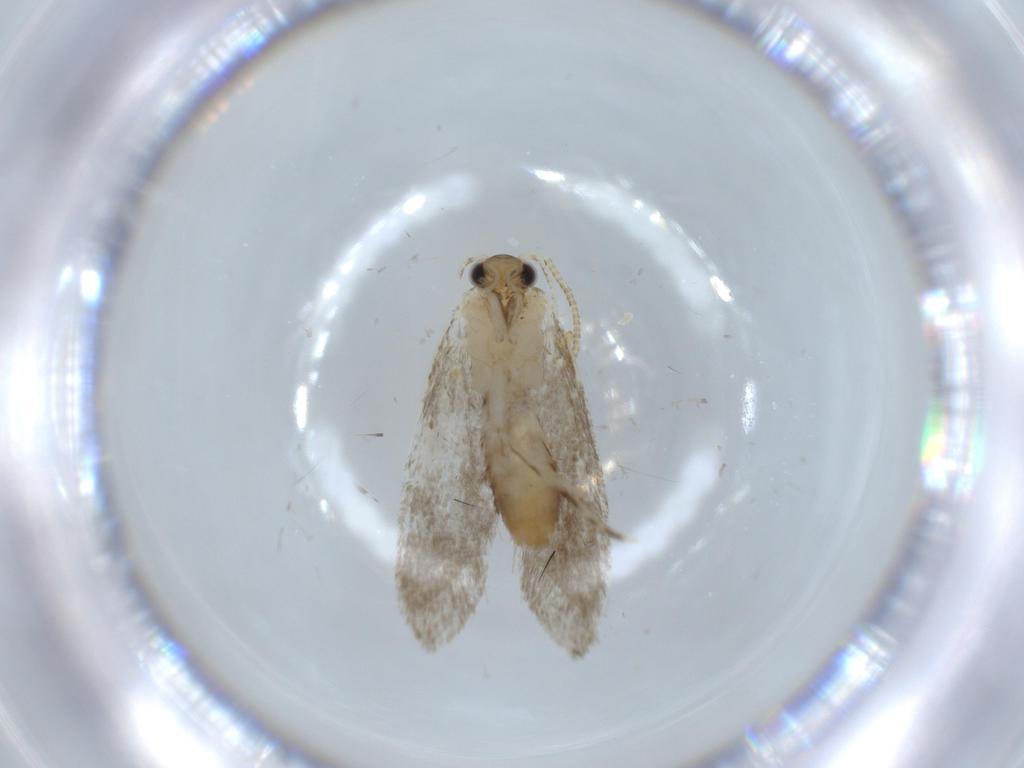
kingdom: Animalia
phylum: Arthropoda
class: Insecta
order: Lepidoptera
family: Tineidae
